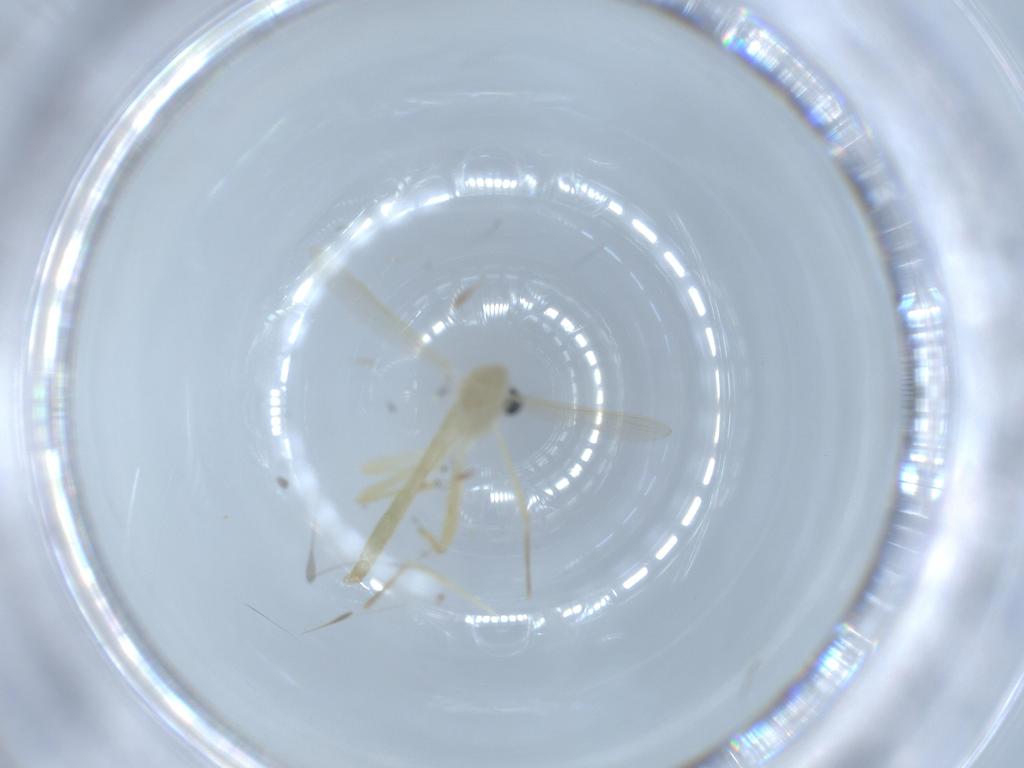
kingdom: Animalia
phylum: Arthropoda
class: Insecta
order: Diptera
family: Chironomidae
